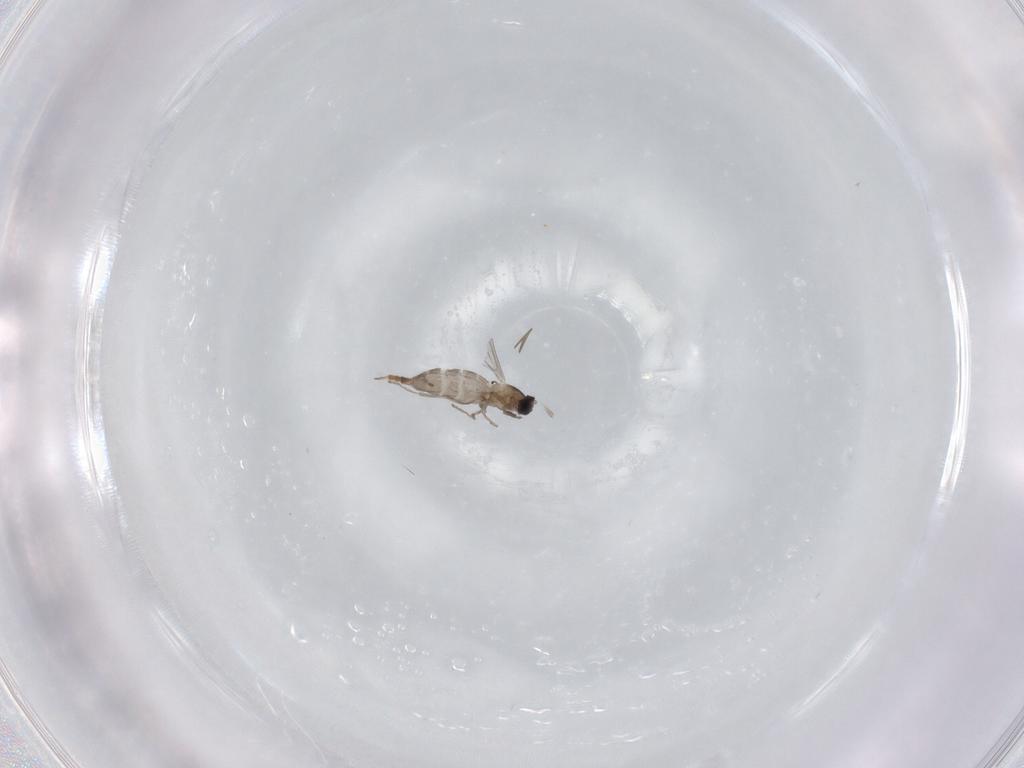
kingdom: Animalia
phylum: Arthropoda
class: Insecta
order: Diptera
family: Cecidomyiidae
